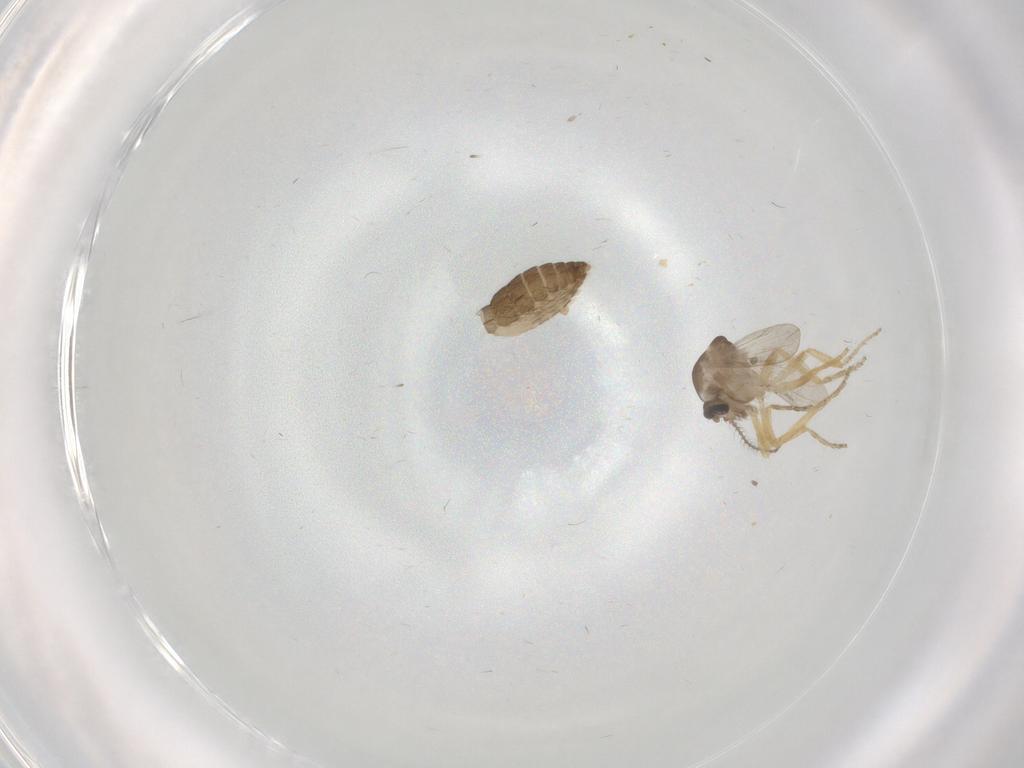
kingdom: Animalia
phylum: Arthropoda
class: Insecta
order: Diptera
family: Ceratopogonidae
